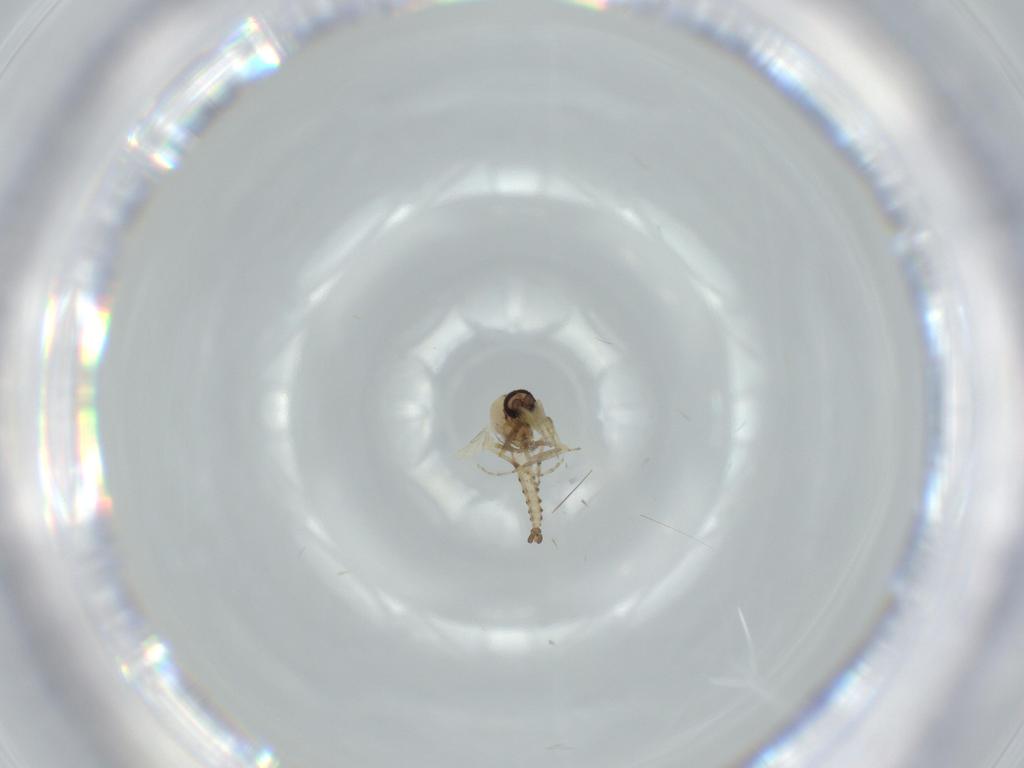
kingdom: Animalia
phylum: Arthropoda
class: Insecta
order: Diptera
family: Ceratopogonidae
